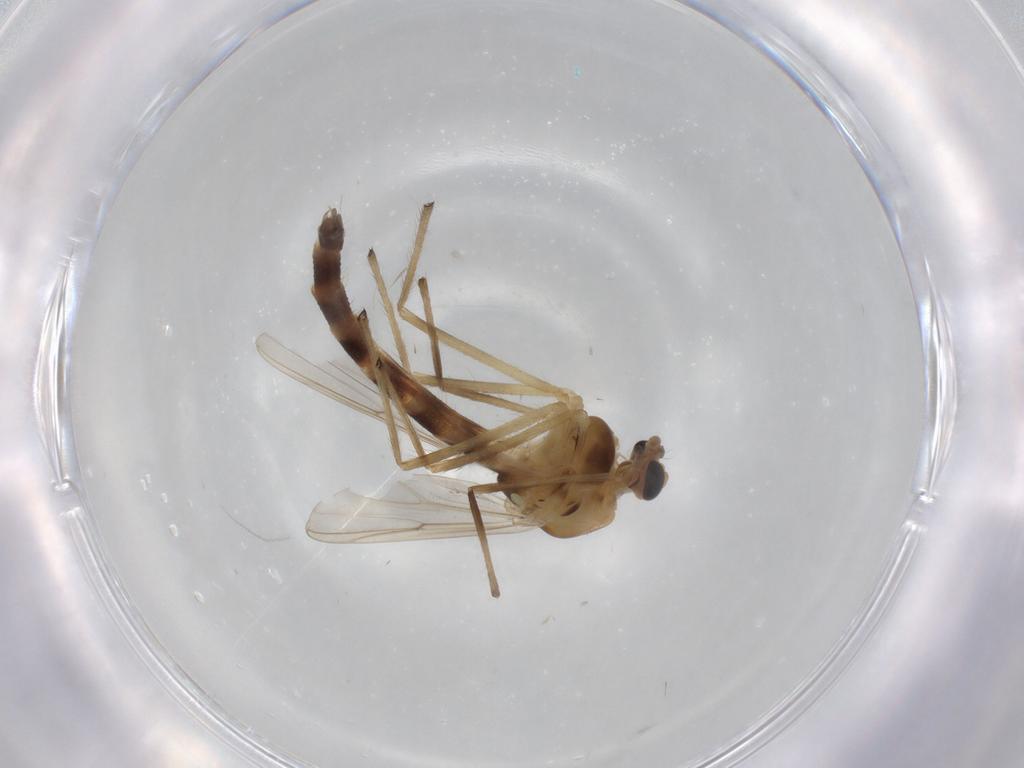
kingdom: Animalia
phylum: Arthropoda
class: Insecta
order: Diptera
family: Chironomidae
